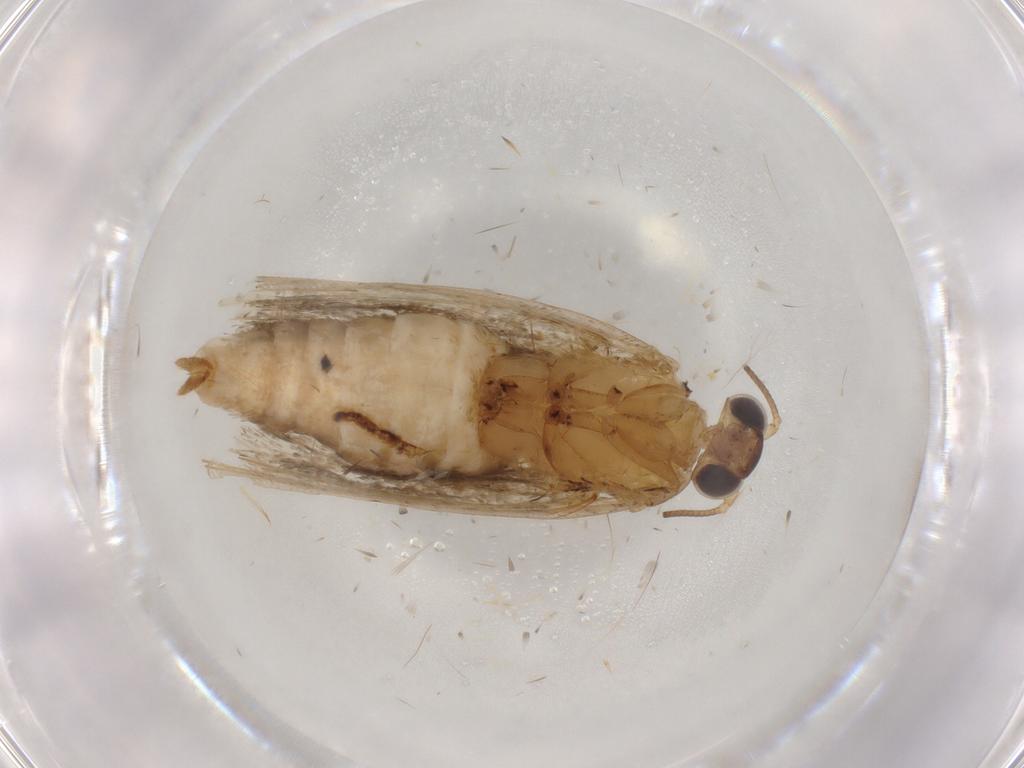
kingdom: Animalia
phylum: Arthropoda
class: Insecta
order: Lepidoptera
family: Tortricidae
